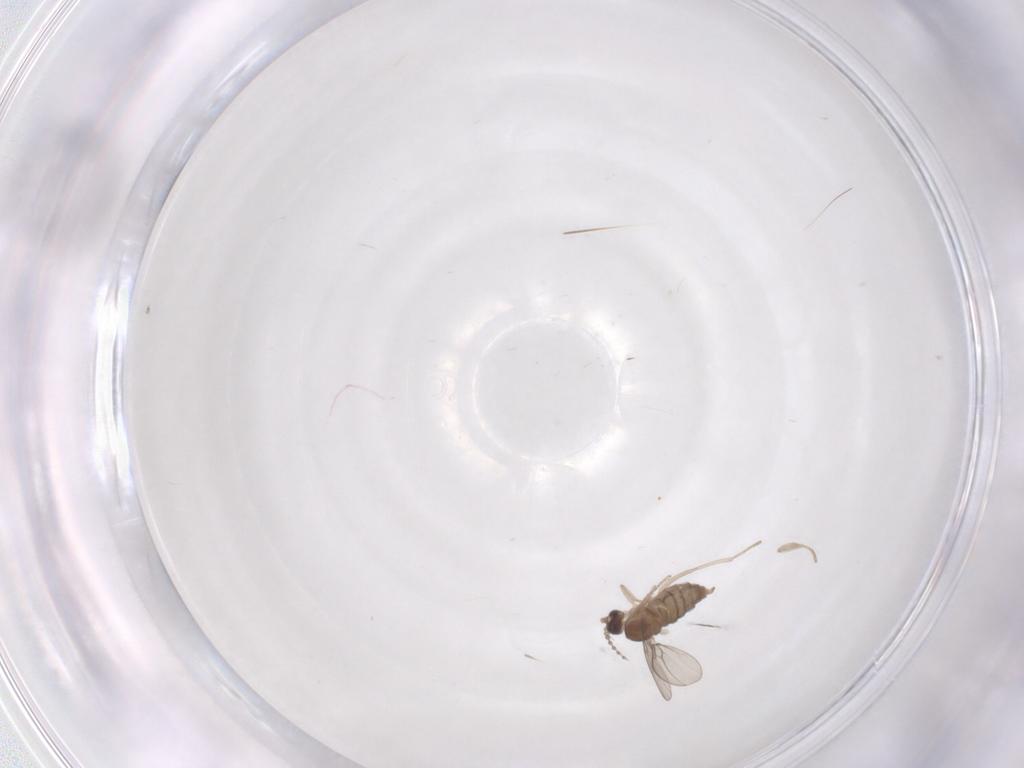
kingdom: Animalia
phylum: Arthropoda
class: Insecta
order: Diptera
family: Cecidomyiidae
